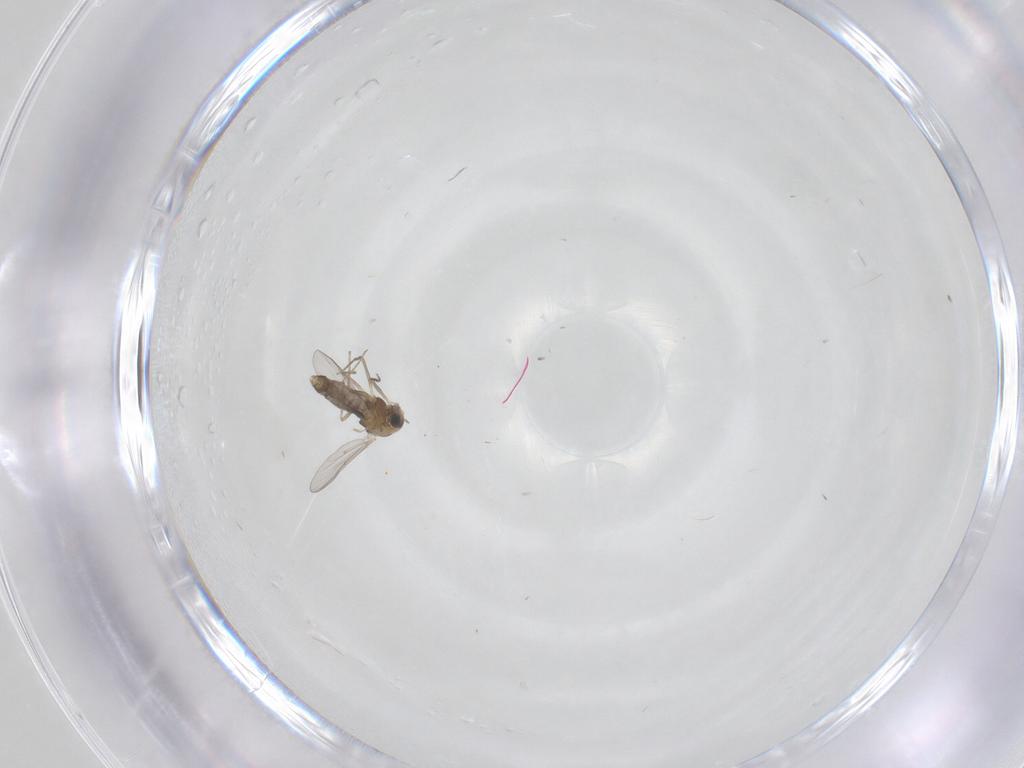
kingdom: Animalia
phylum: Arthropoda
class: Insecta
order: Diptera
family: Chironomidae
